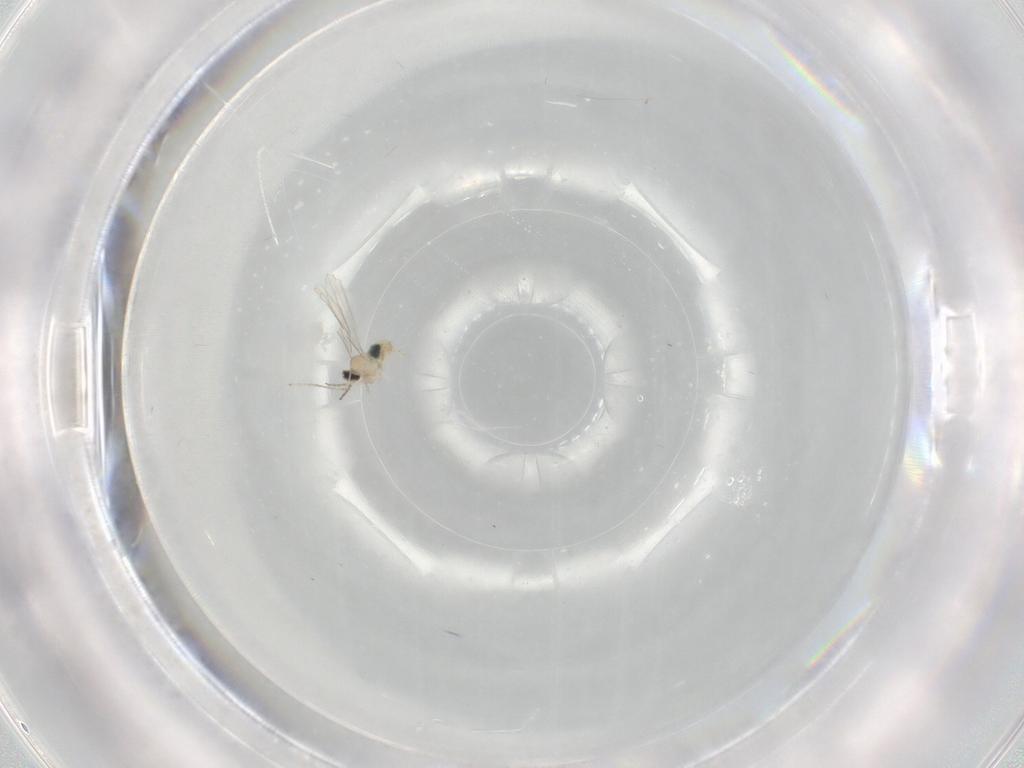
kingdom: Animalia
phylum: Arthropoda
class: Insecta
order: Diptera
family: Cecidomyiidae
